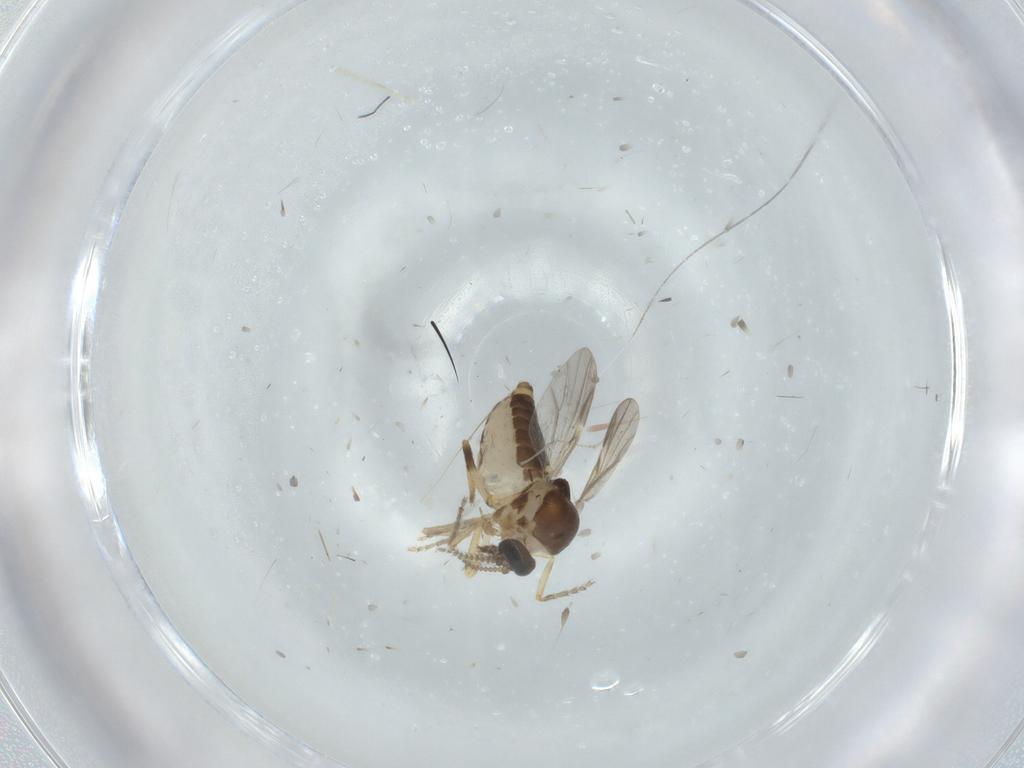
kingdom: Animalia
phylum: Arthropoda
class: Insecta
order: Diptera
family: Ceratopogonidae
